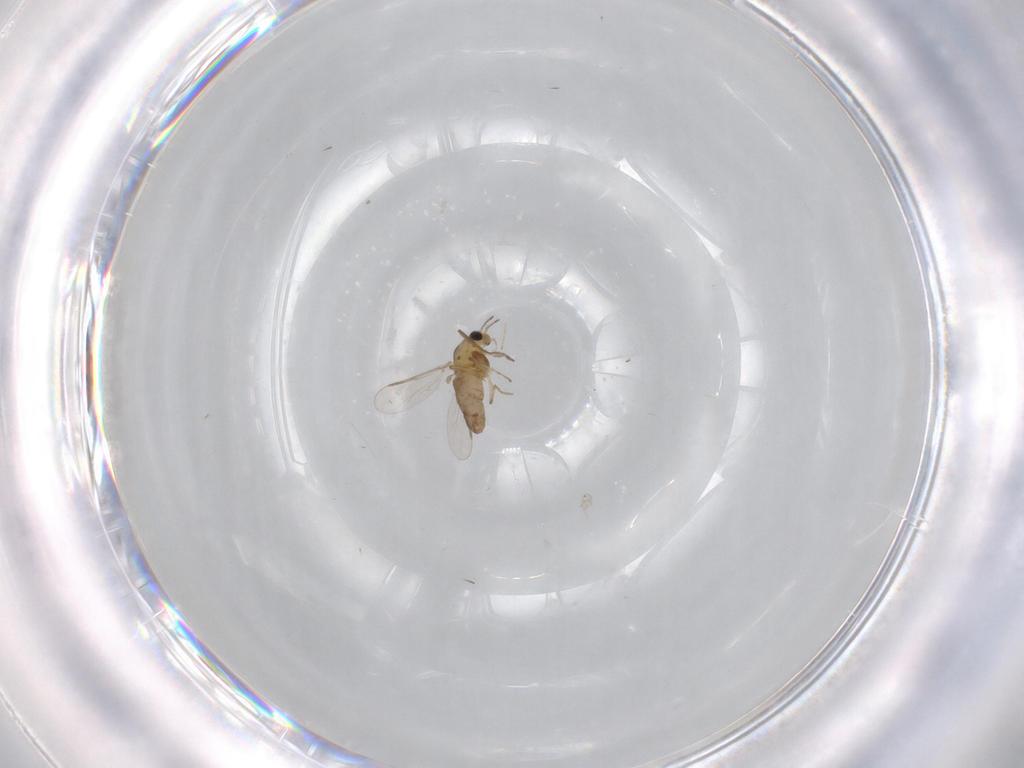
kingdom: Animalia
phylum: Arthropoda
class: Insecta
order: Diptera
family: Chironomidae
